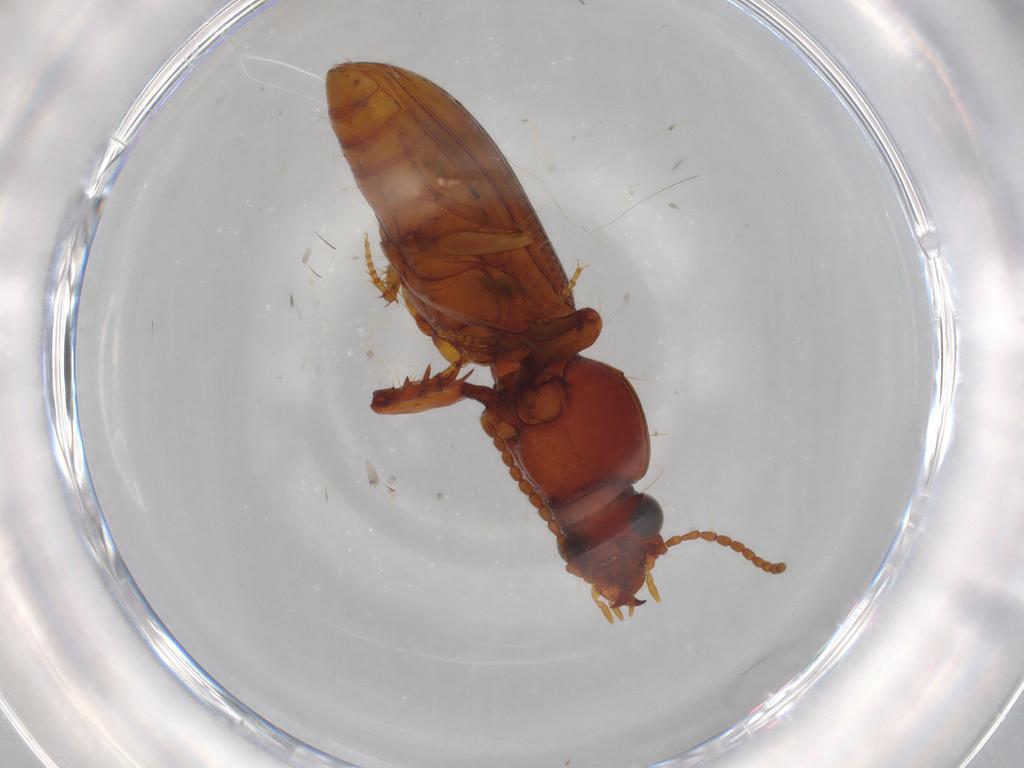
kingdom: Animalia
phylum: Arthropoda
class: Insecta
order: Coleoptera
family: Carabidae
